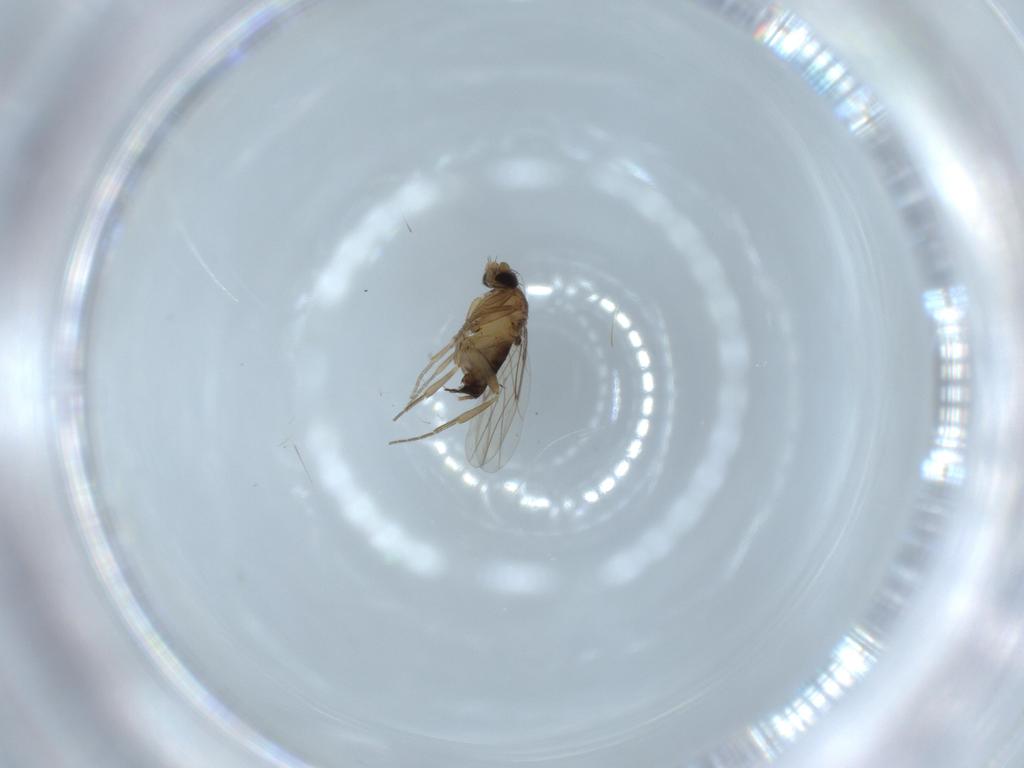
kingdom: Animalia
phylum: Arthropoda
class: Insecta
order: Diptera
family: Phoridae
